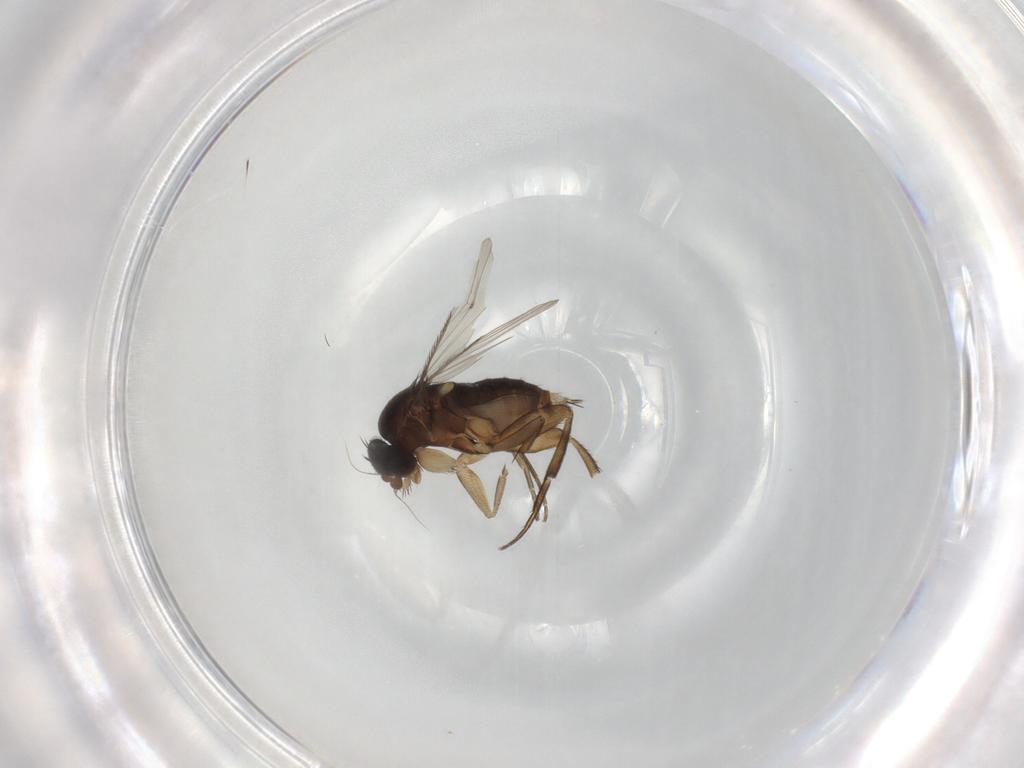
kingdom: Animalia
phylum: Arthropoda
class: Insecta
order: Diptera
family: Phoridae
